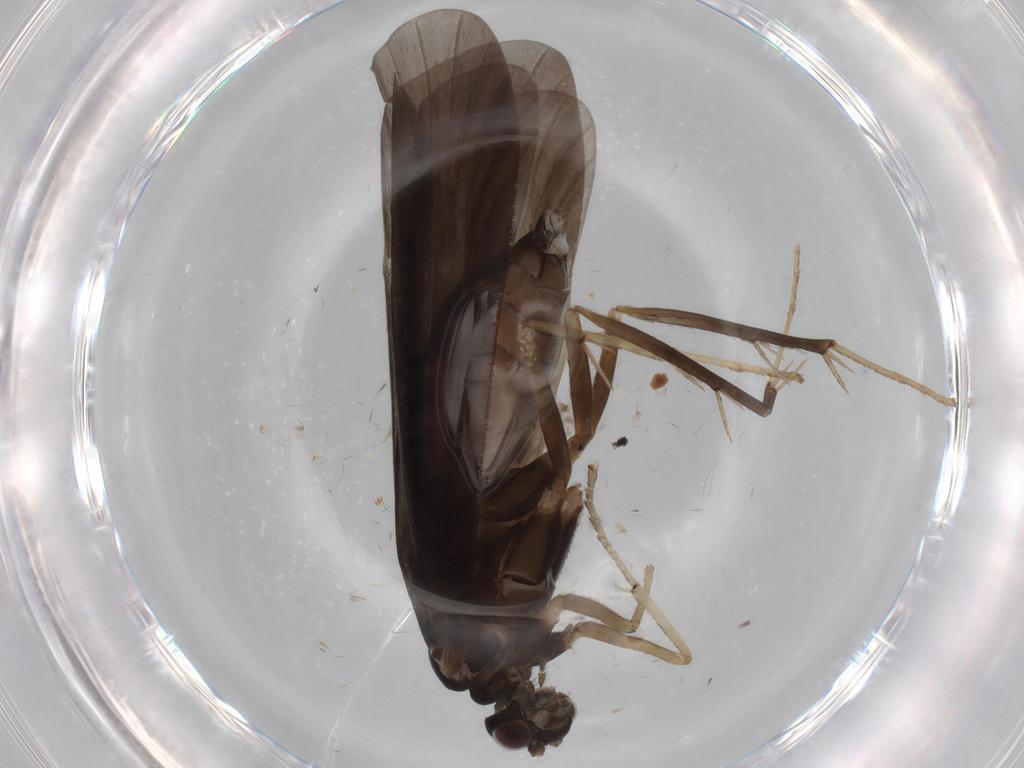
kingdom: Animalia
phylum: Arthropoda
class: Insecta
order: Trichoptera
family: Hydropsychidae
